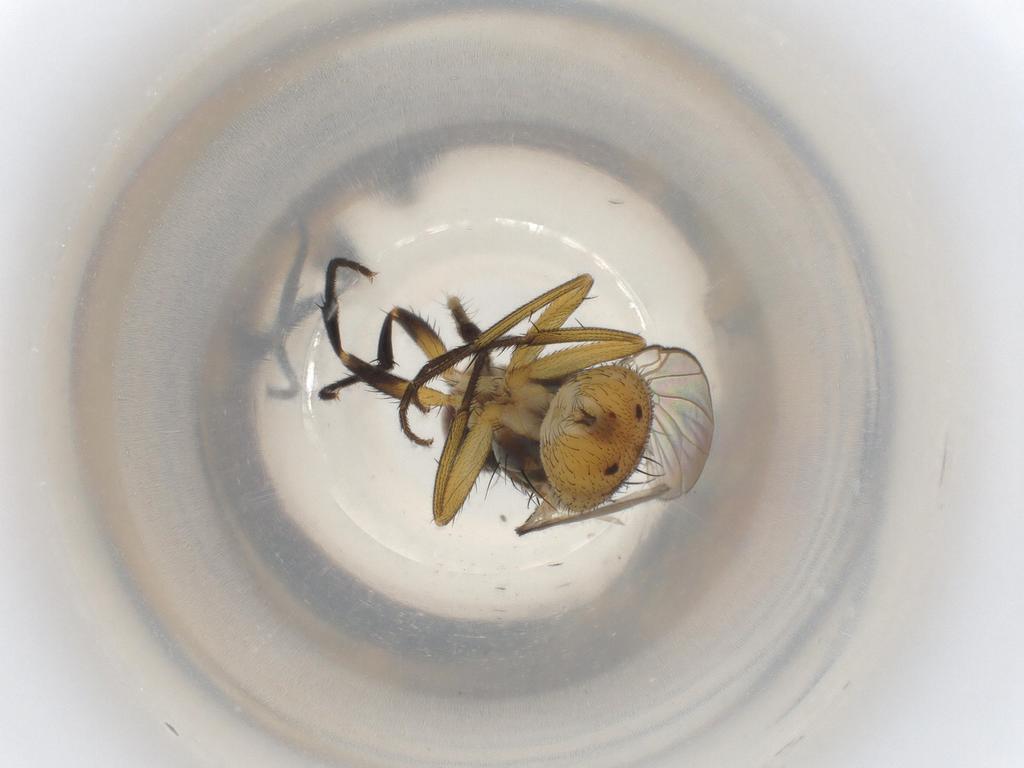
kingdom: Animalia
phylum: Arthropoda
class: Insecta
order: Diptera
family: Muscidae
